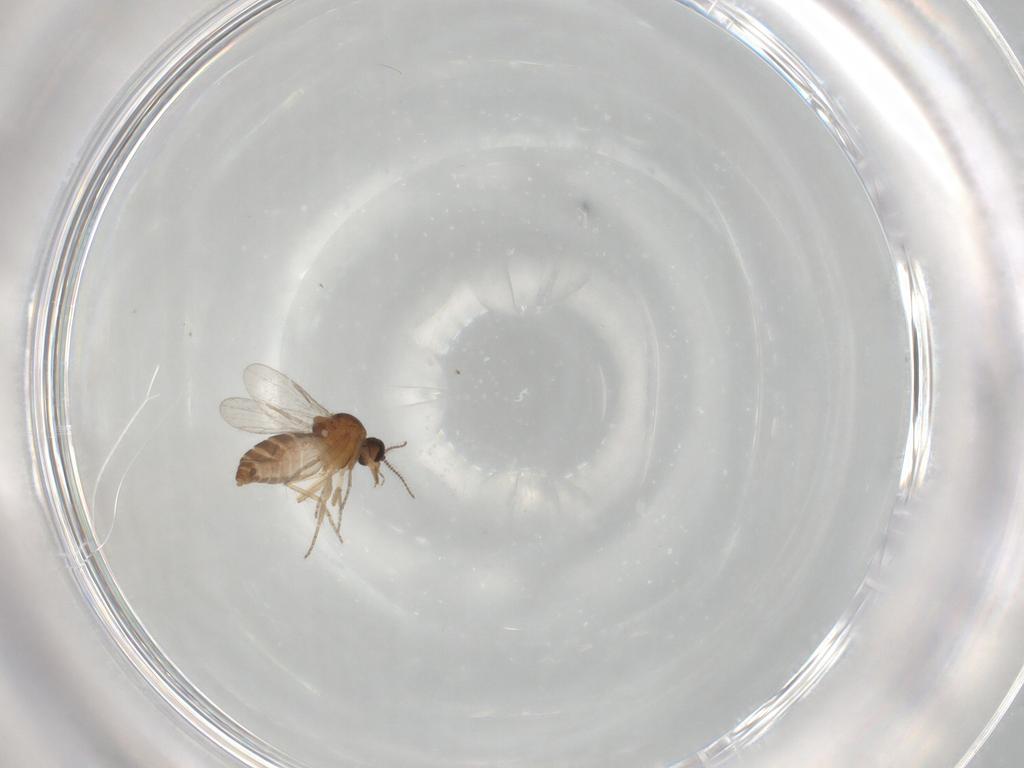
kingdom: Animalia
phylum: Arthropoda
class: Insecta
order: Diptera
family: Ceratopogonidae
